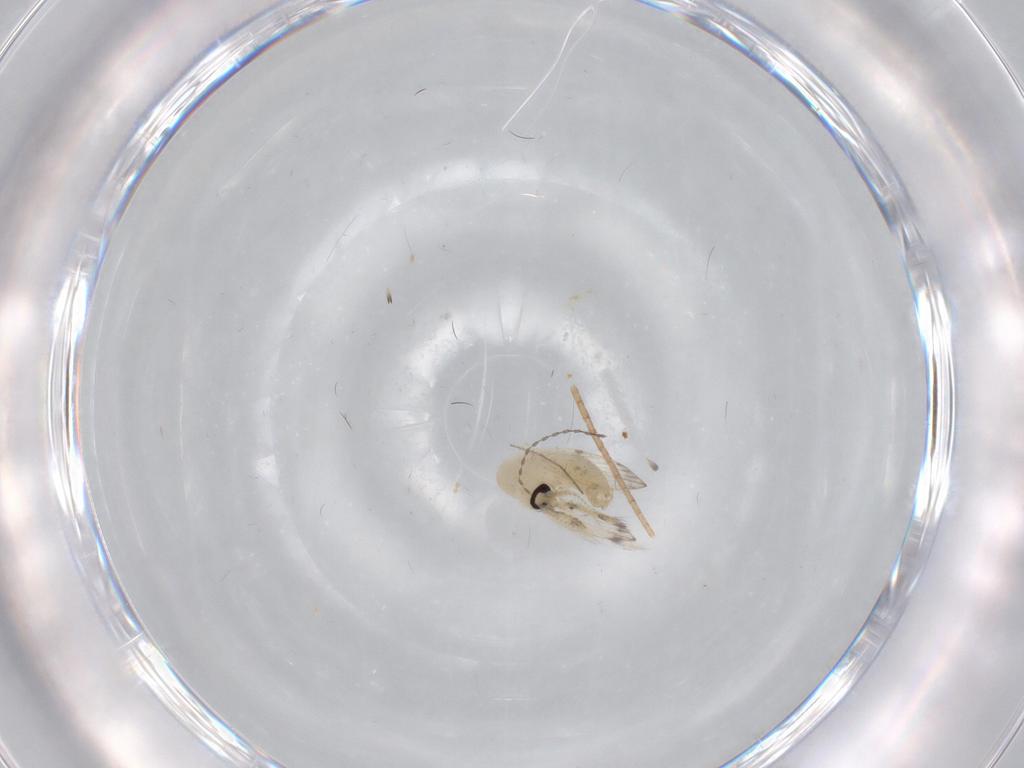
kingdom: Animalia
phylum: Arthropoda
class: Insecta
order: Diptera
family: Psychodidae
